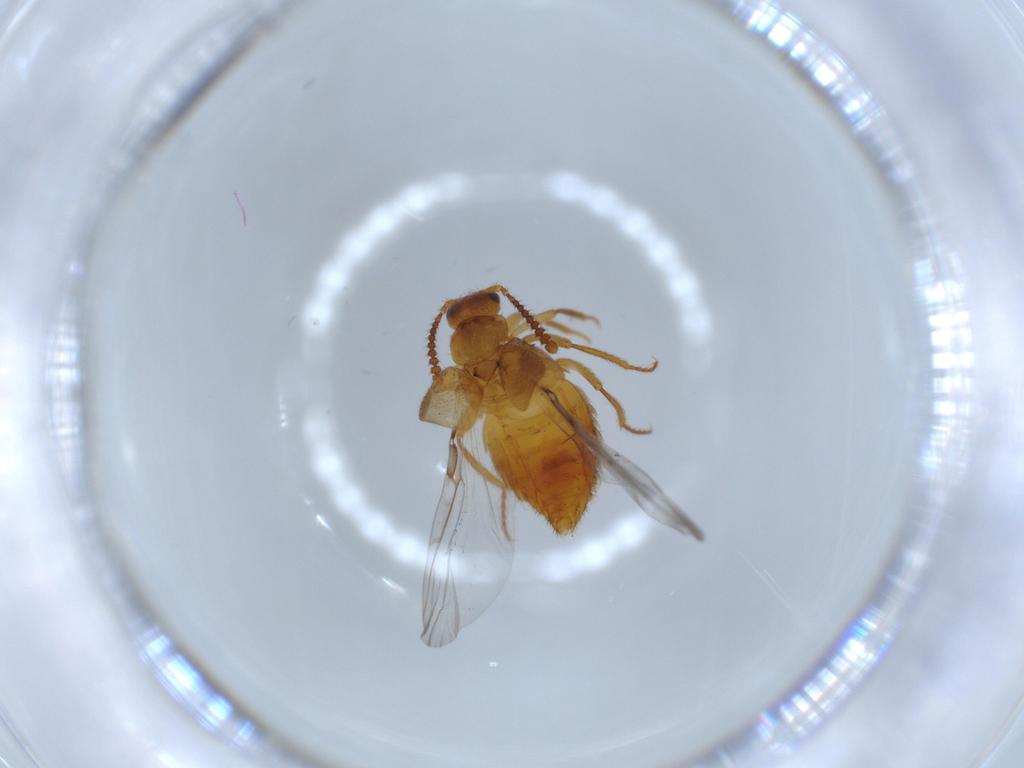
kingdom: Animalia
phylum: Arthropoda
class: Insecta
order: Coleoptera
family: Staphylinidae
